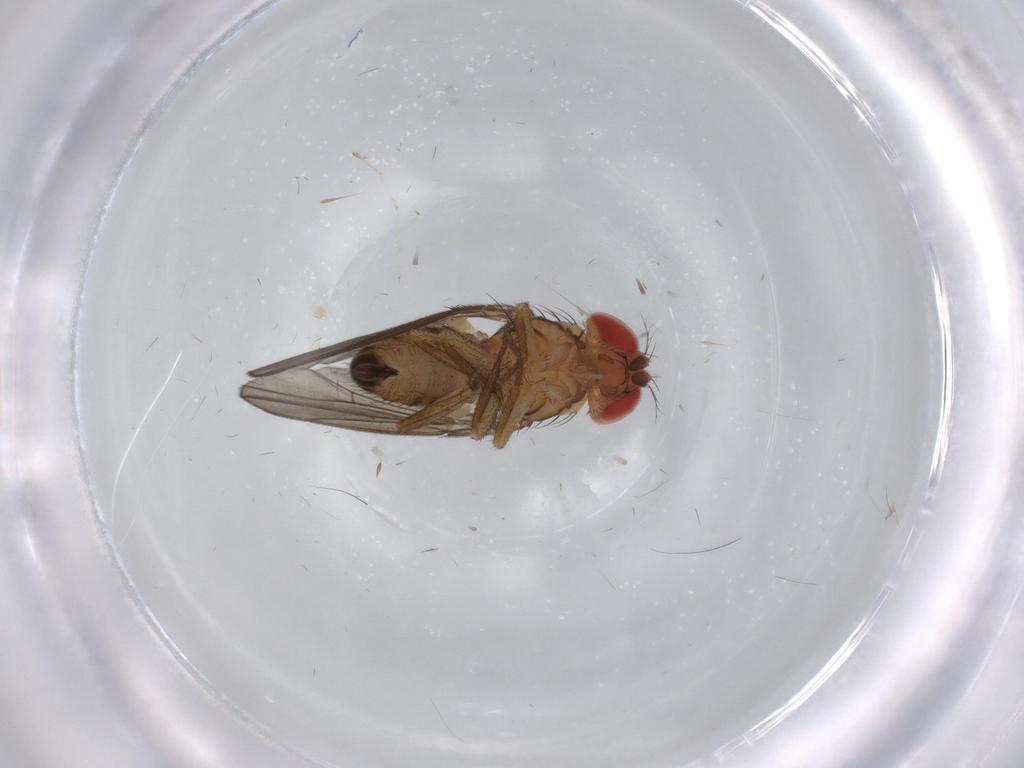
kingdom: Animalia
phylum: Arthropoda
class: Insecta
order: Diptera
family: Drosophilidae
